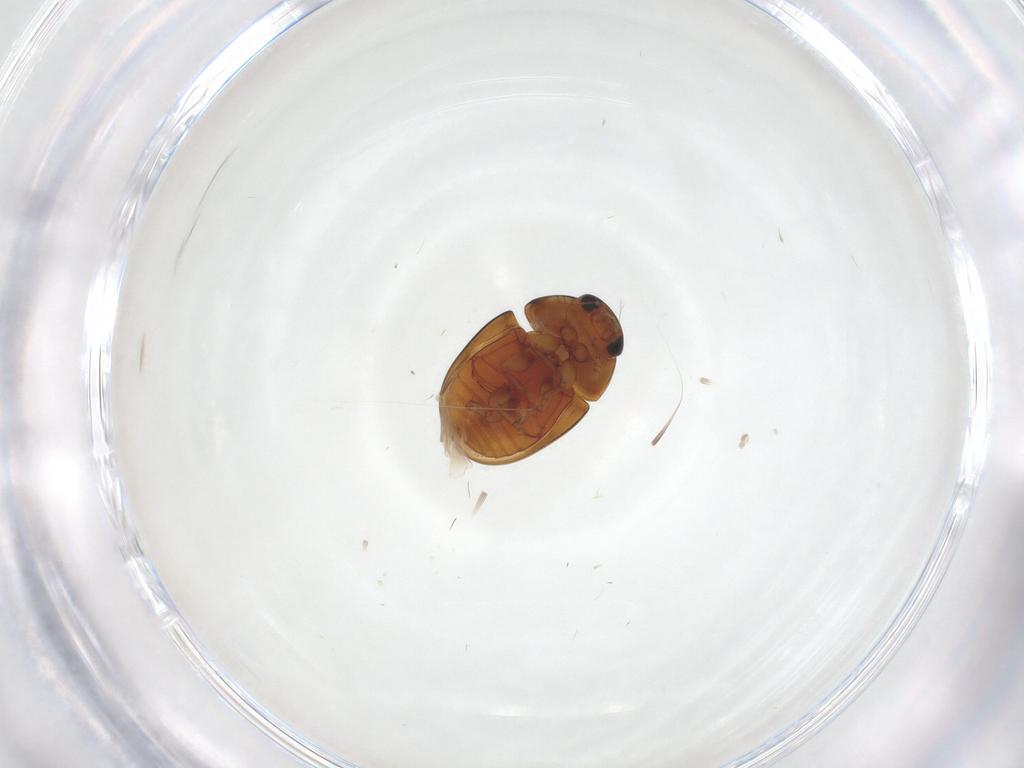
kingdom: Animalia
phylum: Arthropoda
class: Insecta
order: Coleoptera
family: Chrysomelidae
